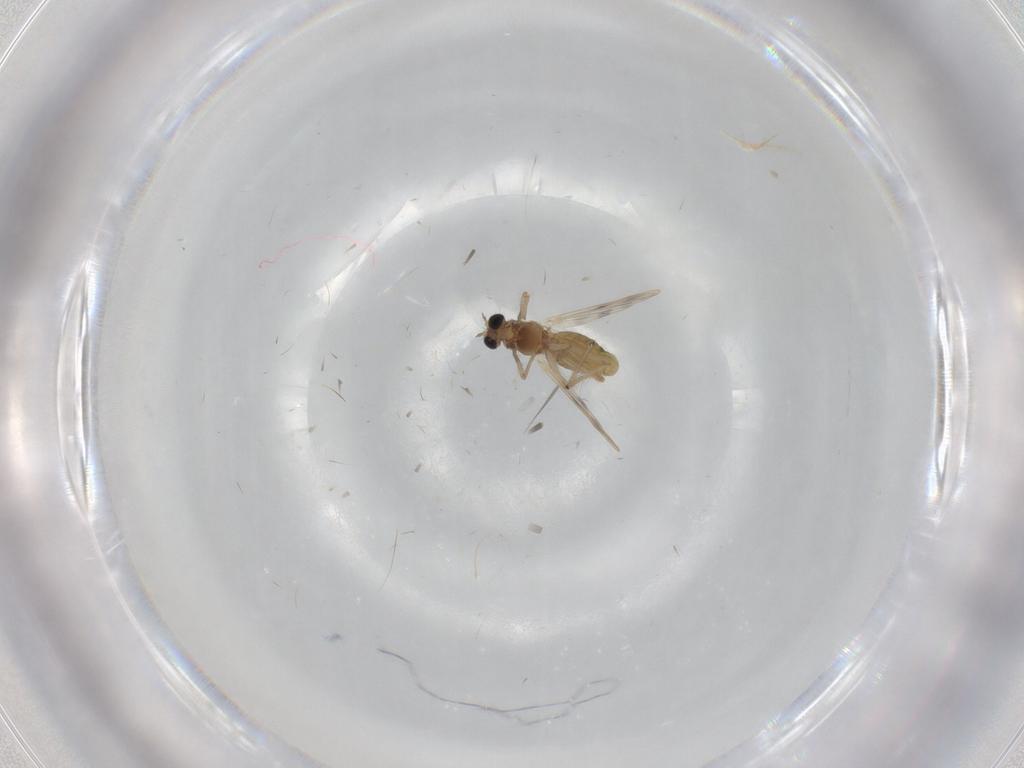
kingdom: Animalia
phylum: Arthropoda
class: Insecta
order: Diptera
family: Chironomidae
